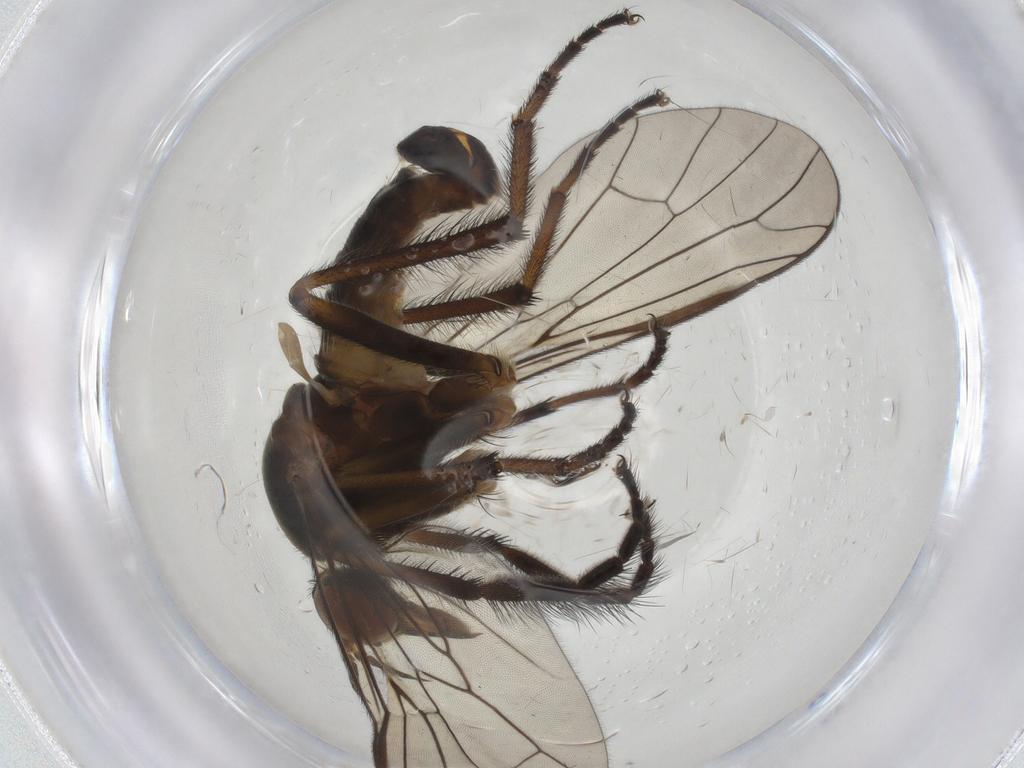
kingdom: Animalia
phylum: Arthropoda
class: Insecta
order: Diptera
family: Empididae
